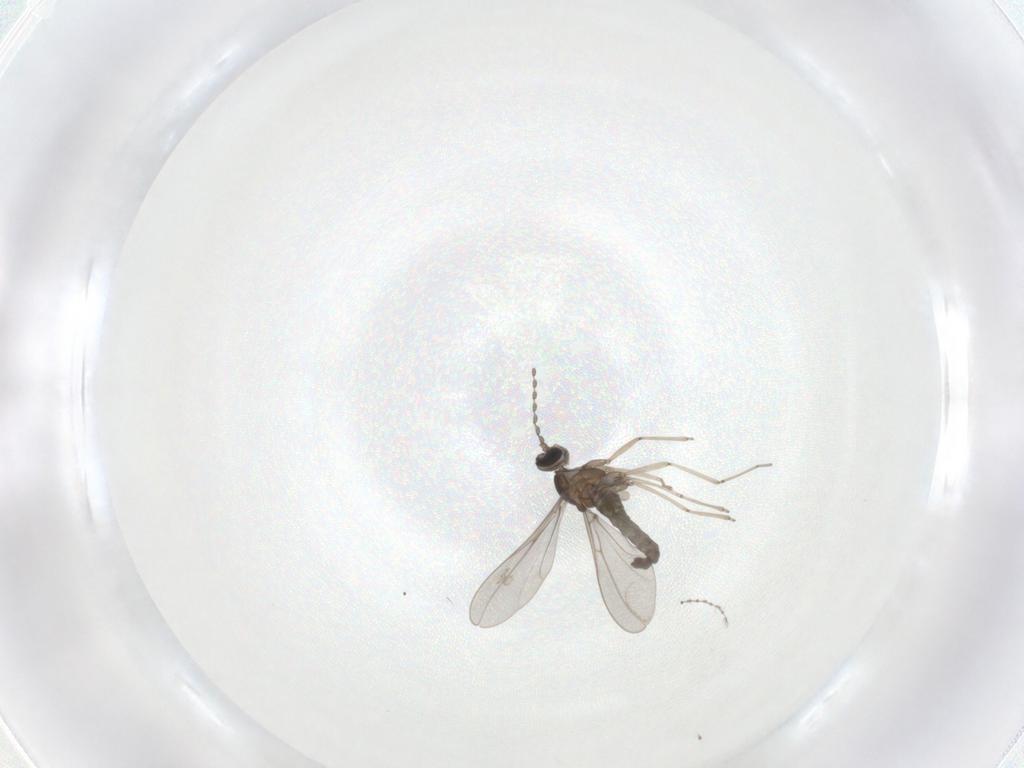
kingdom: Animalia
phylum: Arthropoda
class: Insecta
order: Diptera
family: Cecidomyiidae
